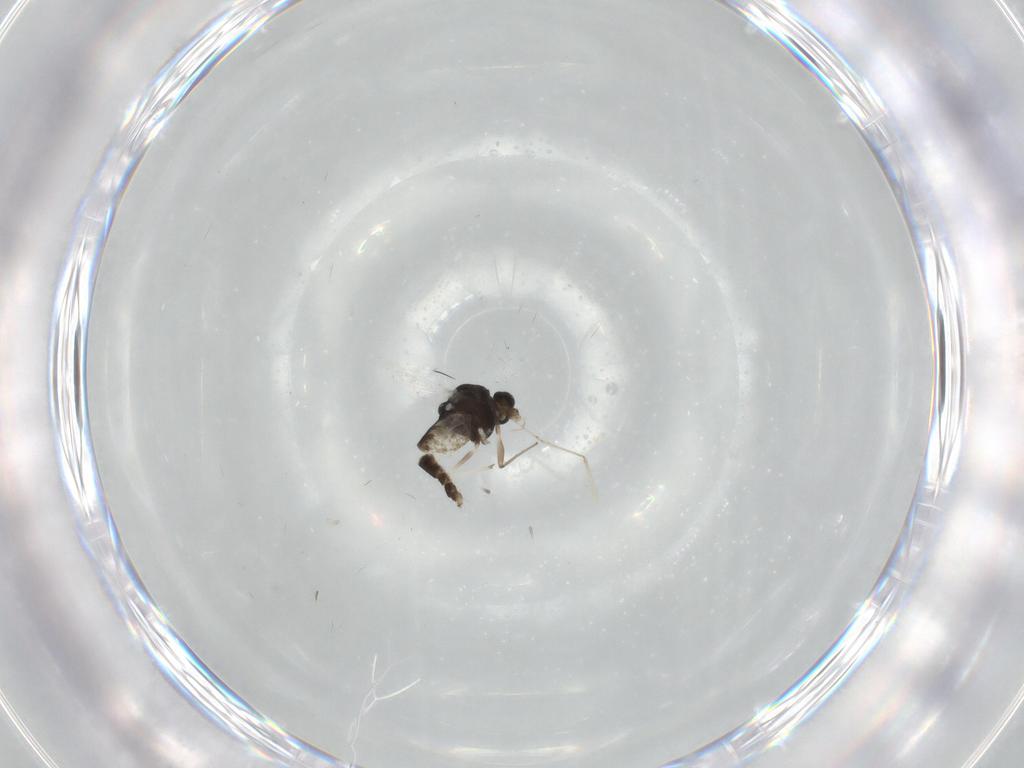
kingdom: Animalia
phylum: Arthropoda
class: Insecta
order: Diptera
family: Chironomidae
